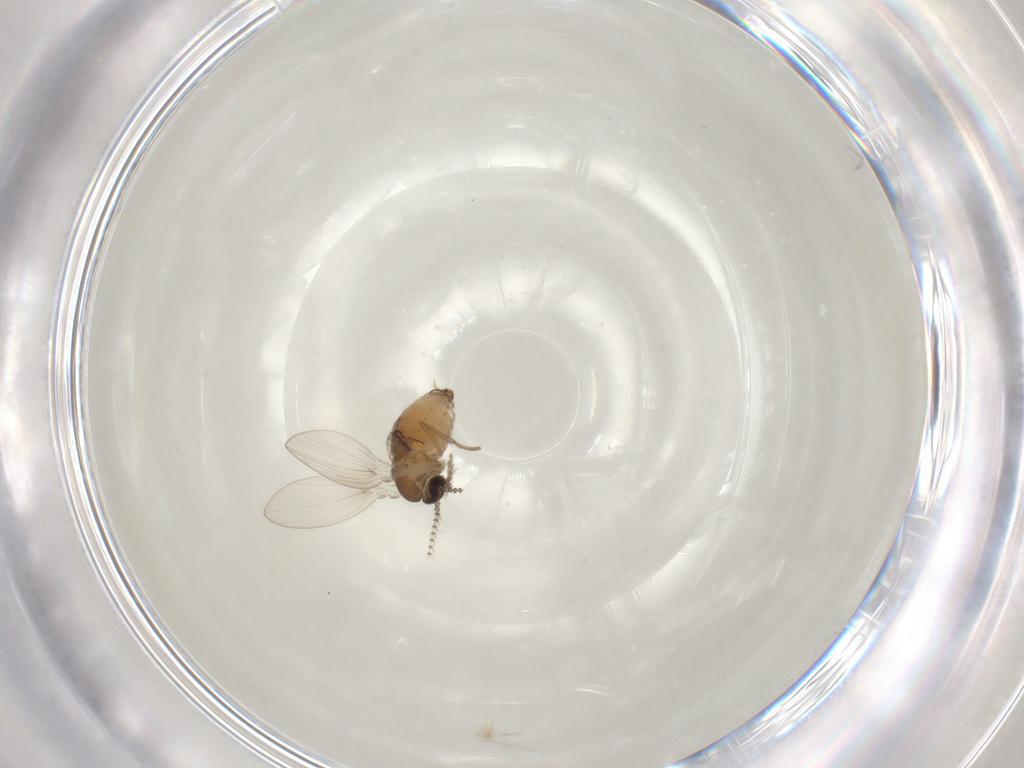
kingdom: Animalia
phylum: Arthropoda
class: Insecta
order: Diptera
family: Psychodidae
